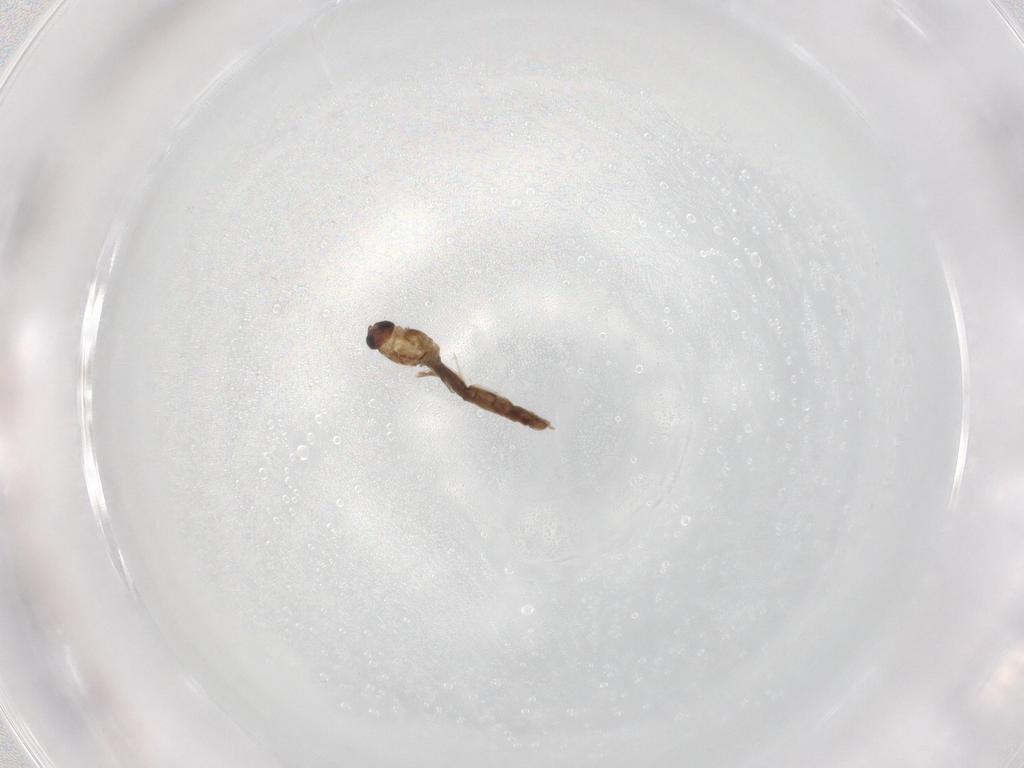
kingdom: Animalia
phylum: Arthropoda
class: Insecta
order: Diptera
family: Chironomidae
